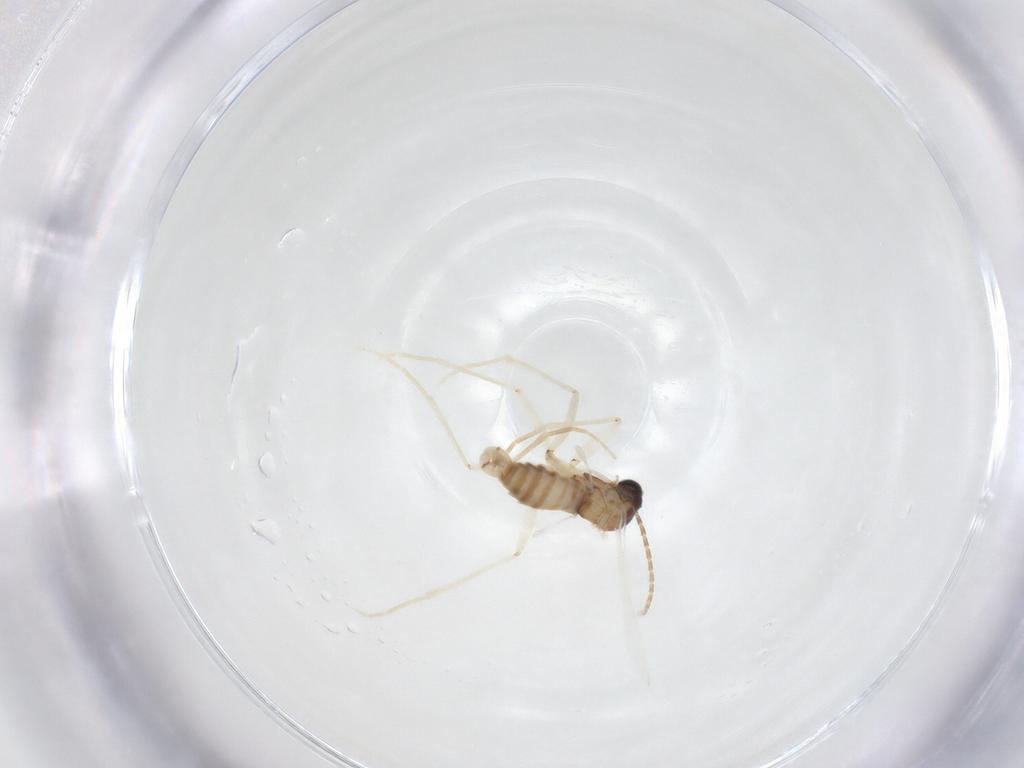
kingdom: Animalia
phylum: Arthropoda
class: Insecta
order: Diptera
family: Sciaridae
